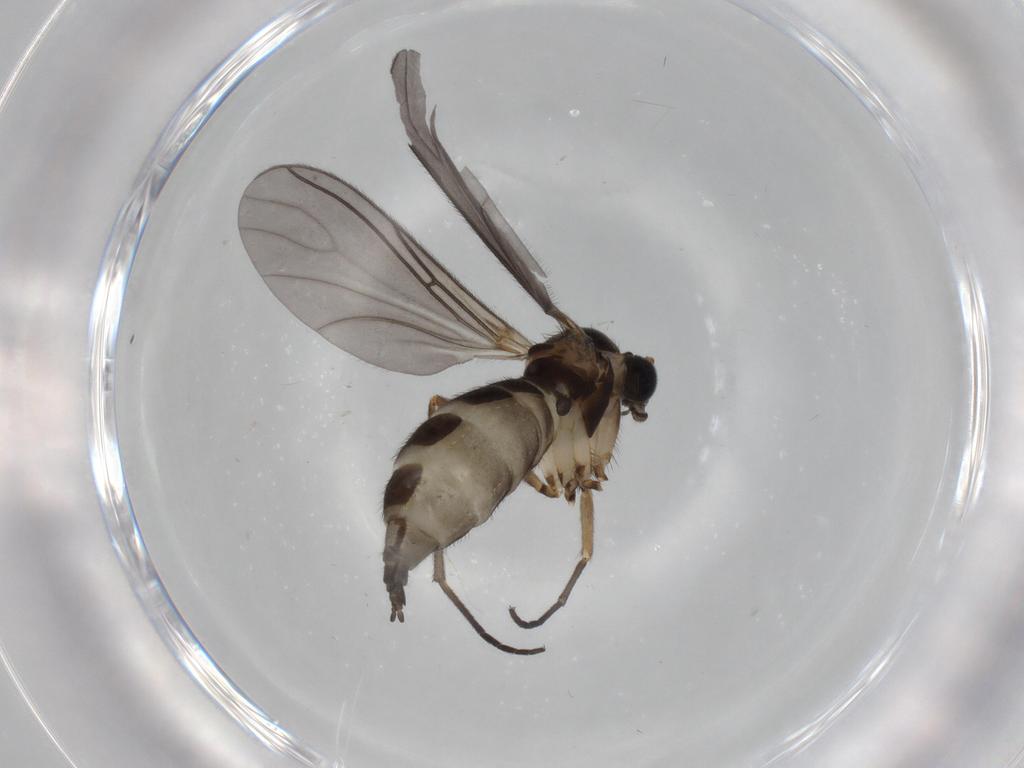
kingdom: Animalia
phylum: Arthropoda
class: Insecta
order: Diptera
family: Sciaridae
